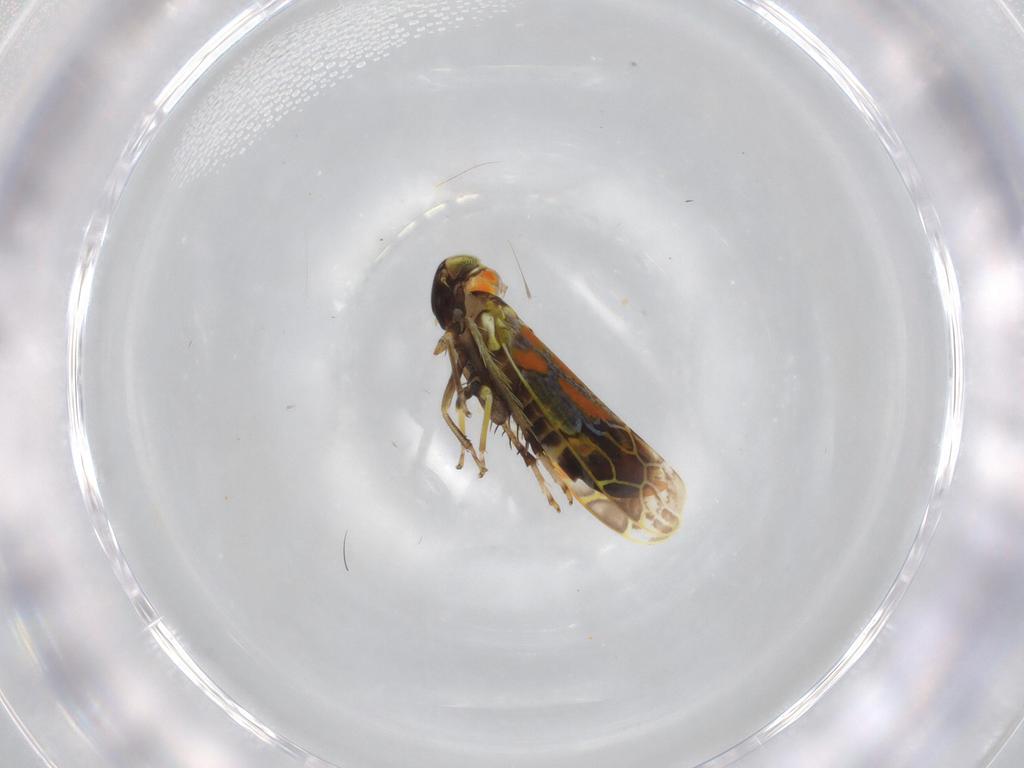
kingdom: Animalia
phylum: Arthropoda
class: Insecta
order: Hemiptera
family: Cicadellidae
